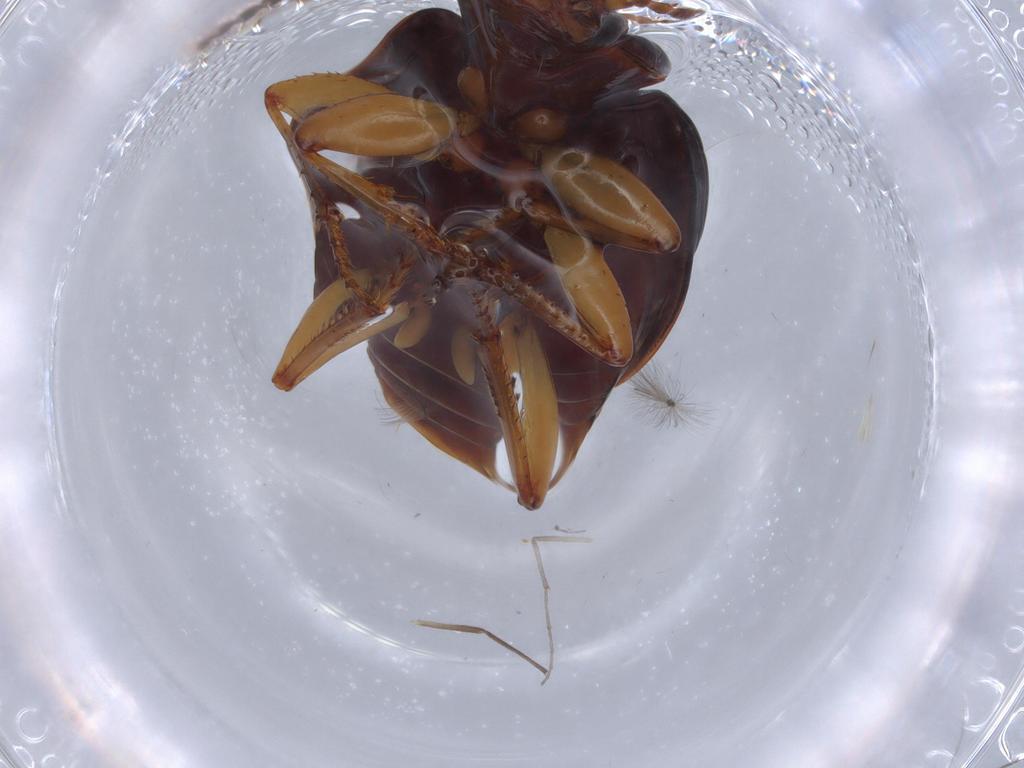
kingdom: Animalia
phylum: Arthropoda
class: Insecta
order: Coleoptera
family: Carabidae
